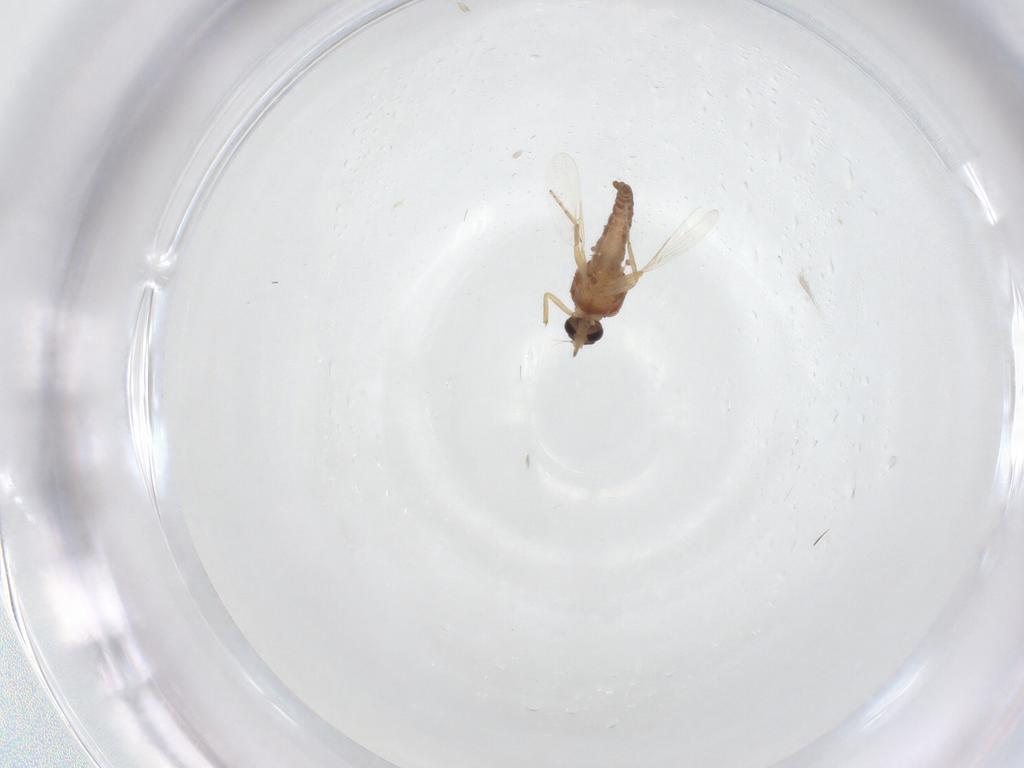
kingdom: Animalia
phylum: Arthropoda
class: Insecta
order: Diptera
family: Ceratopogonidae
